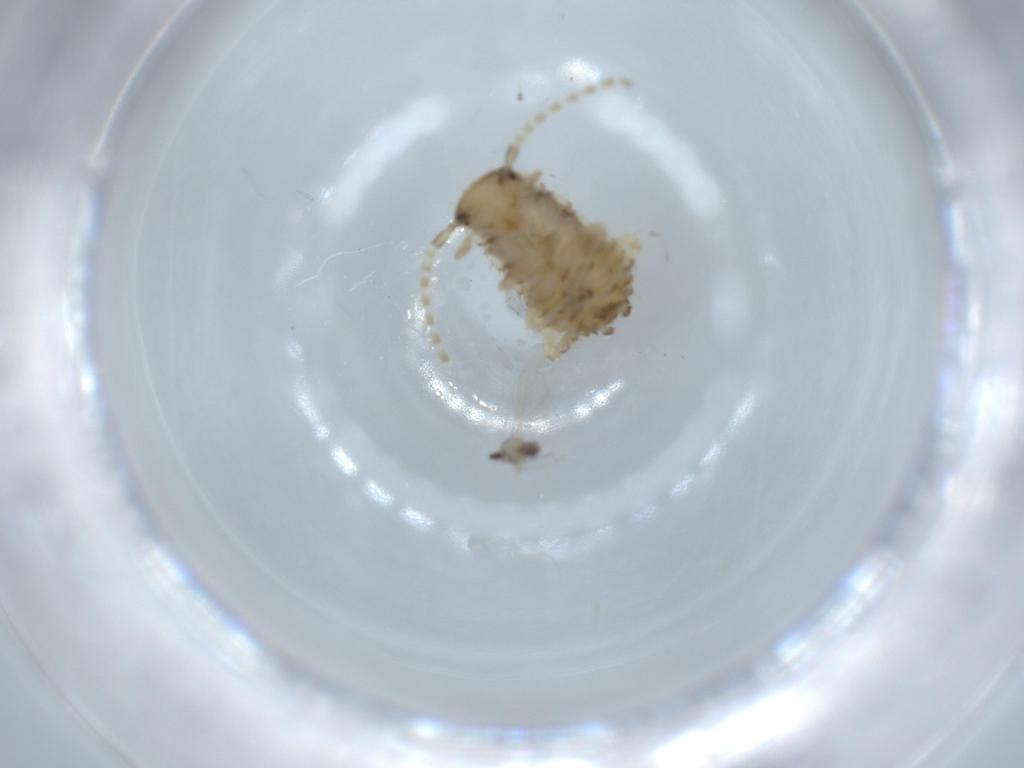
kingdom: Animalia
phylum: Arthropoda
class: Insecta
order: Blattodea
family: Ectobiidae
